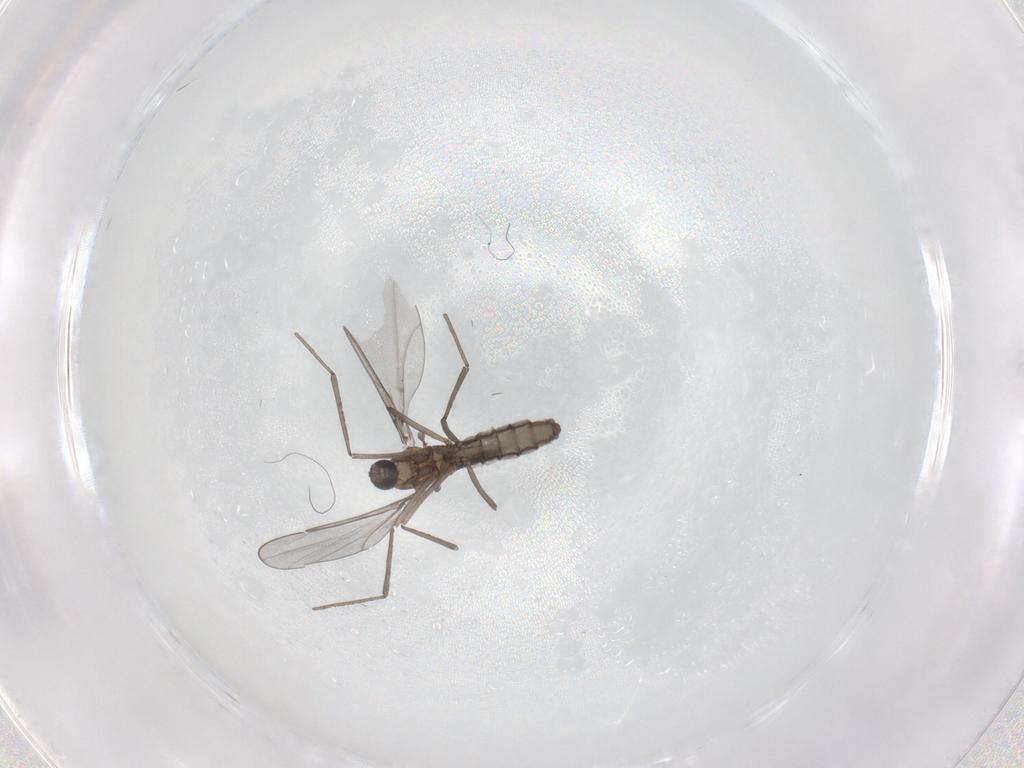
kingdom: Animalia
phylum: Arthropoda
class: Insecta
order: Diptera
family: Cecidomyiidae
